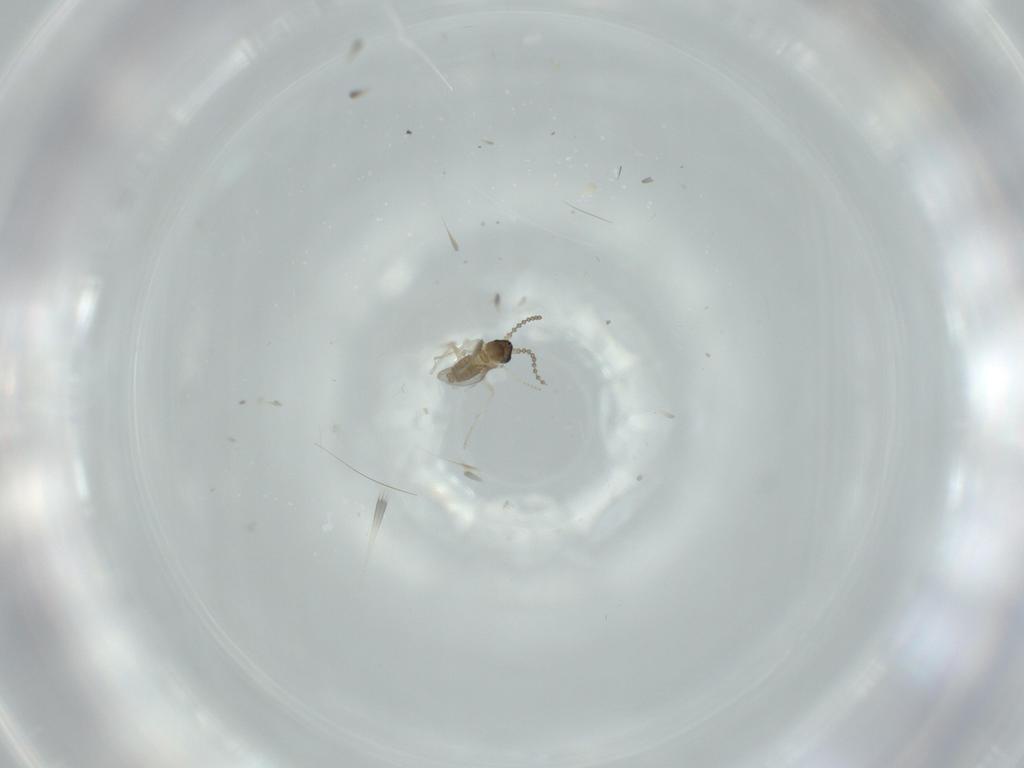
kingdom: Animalia
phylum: Arthropoda
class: Insecta
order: Diptera
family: Cecidomyiidae
